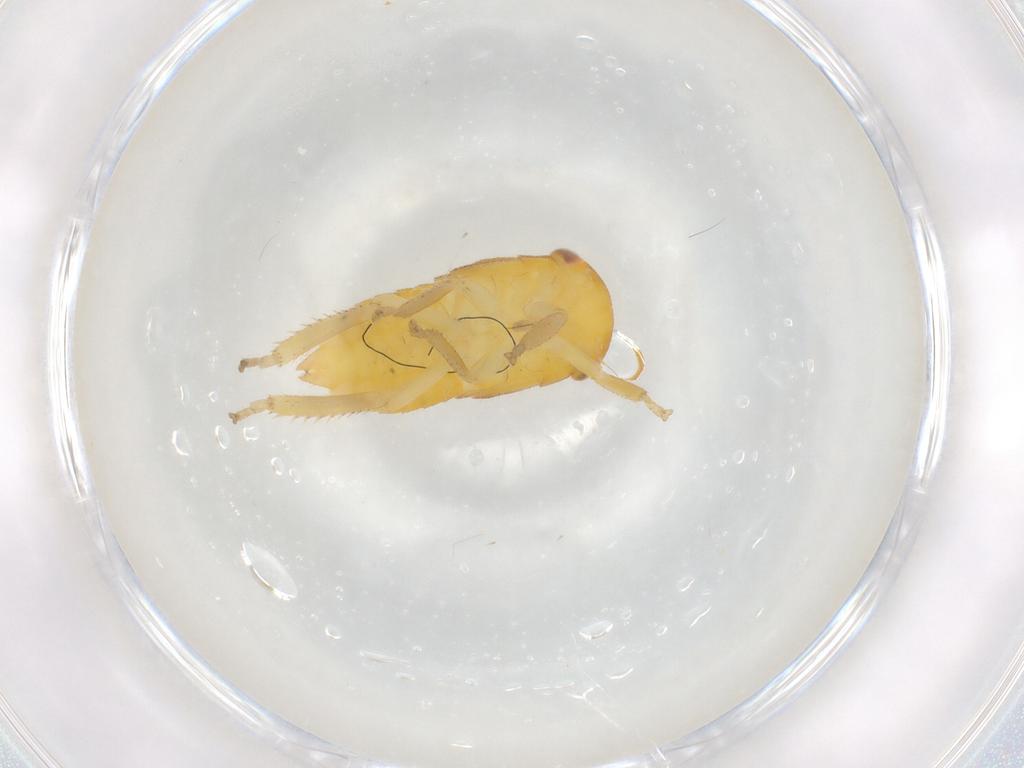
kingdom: Animalia
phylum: Arthropoda
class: Insecta
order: Hemiptera
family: Cicadellidae
